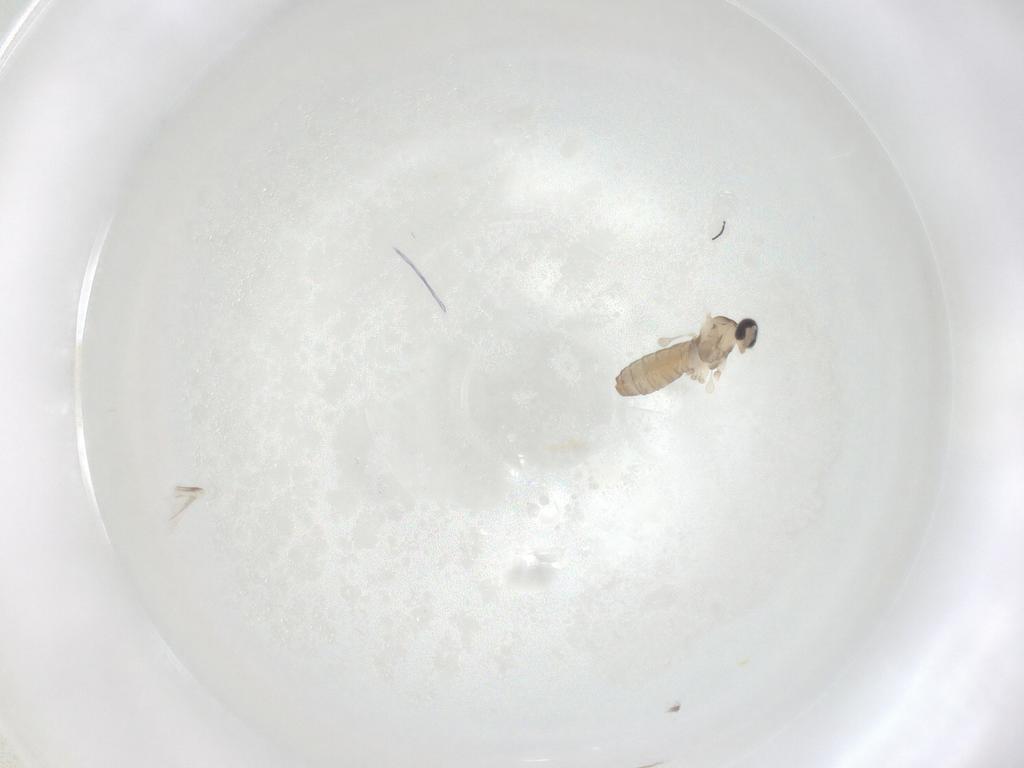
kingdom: Animalia
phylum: Arthropoda
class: Insecta
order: Diptera
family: Cecidomyiidae
